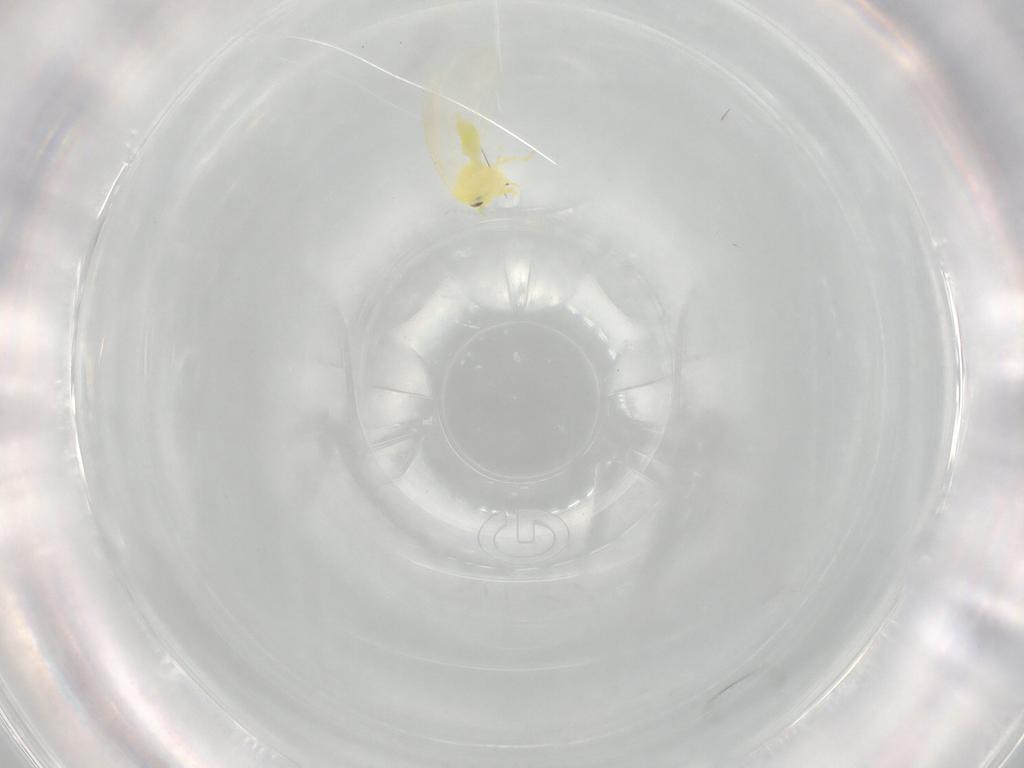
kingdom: Animalia
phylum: Arthropoda
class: Insecta
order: Hemiptera
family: Aleyrodidae
